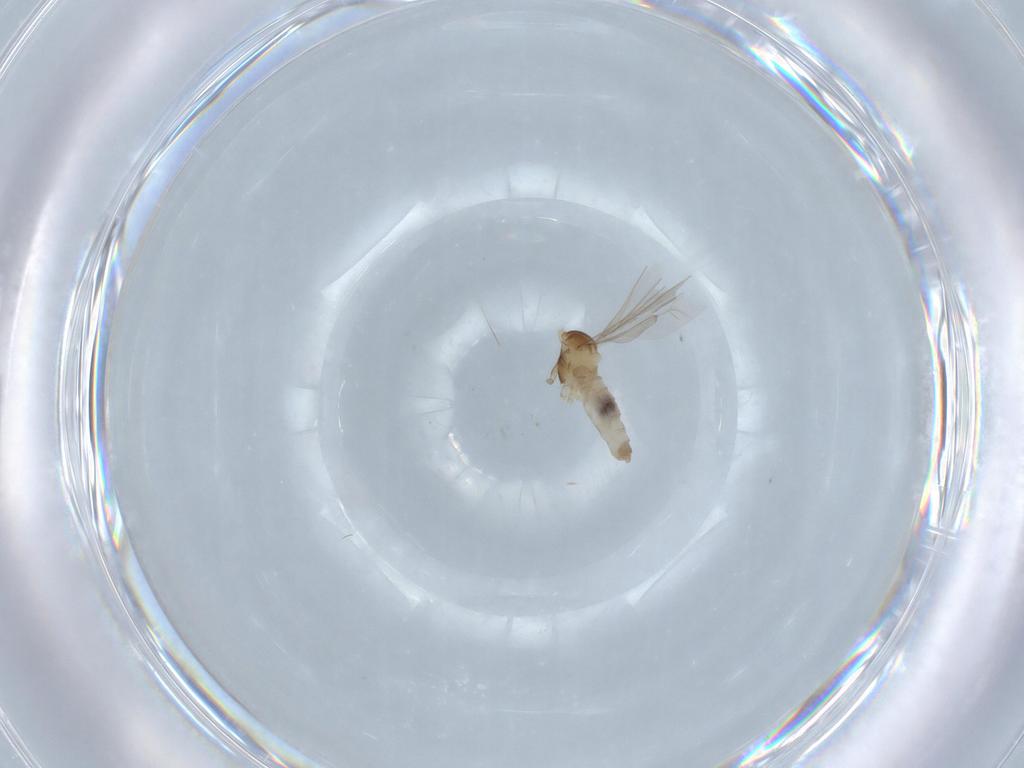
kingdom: Animalia
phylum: Arthropoda
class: Insecta
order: Diptera
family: Cecidomyiidae
